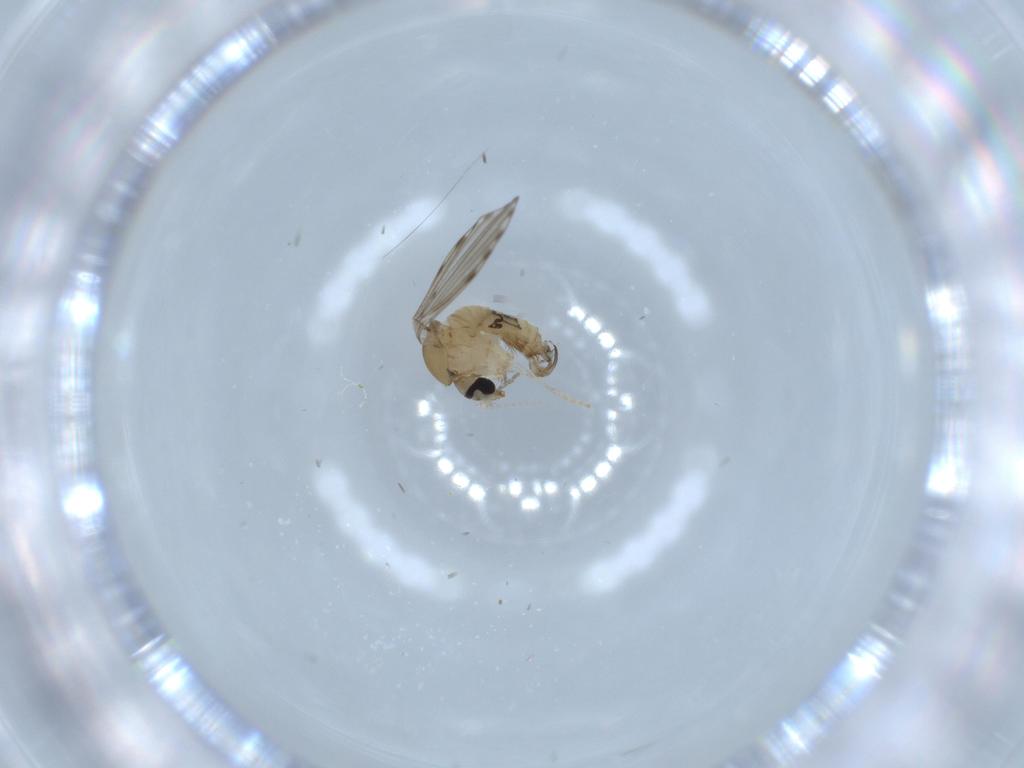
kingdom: Animalia
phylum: Arthropoda
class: Insecta
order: Diptera
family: Psychodidae
